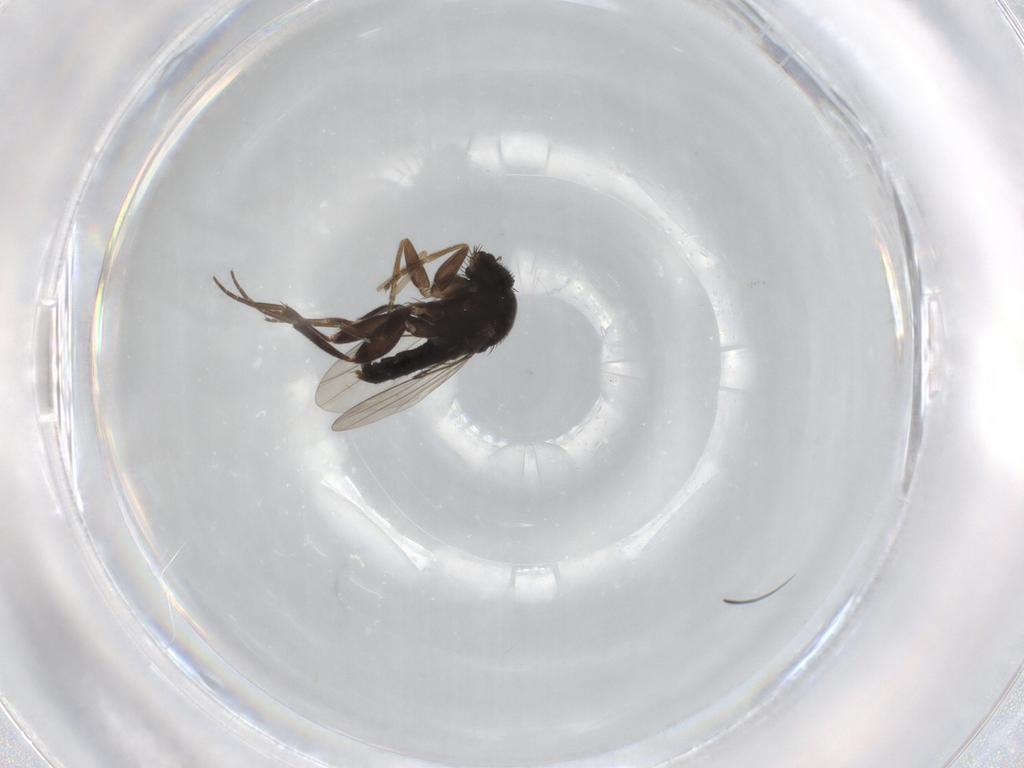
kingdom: Animalia
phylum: Arthropoda
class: Insecta
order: Diptera
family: Phoridae
